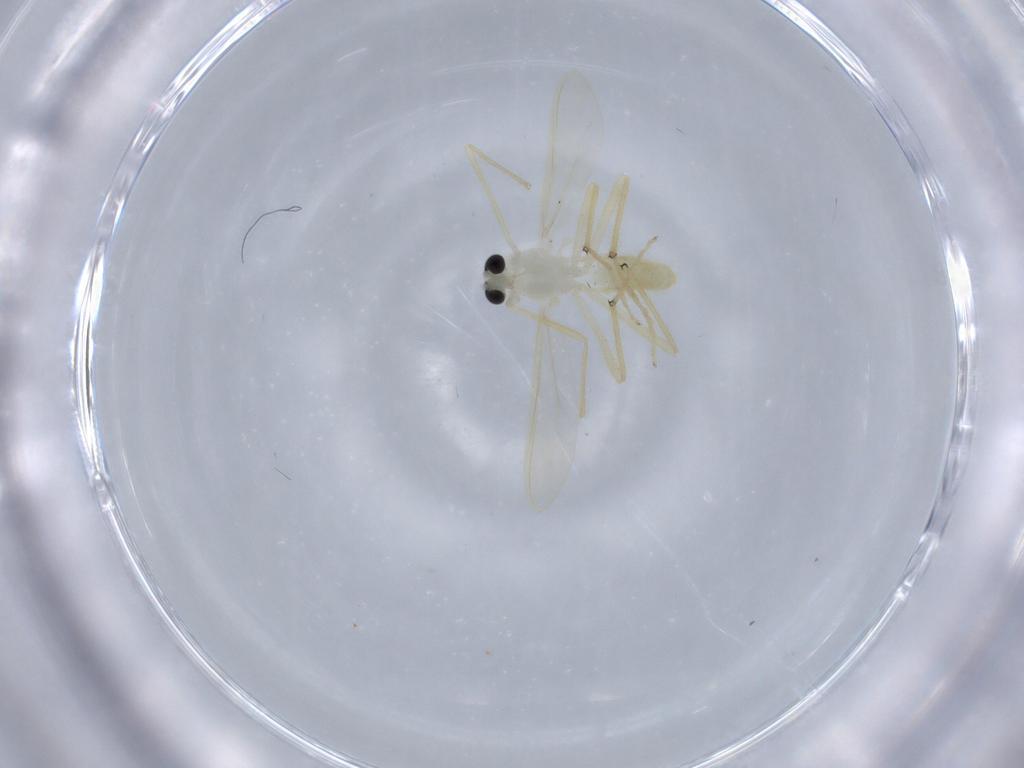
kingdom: Animalia
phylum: Arthropoda
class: Insecta
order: Diptera
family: Chironomidae
